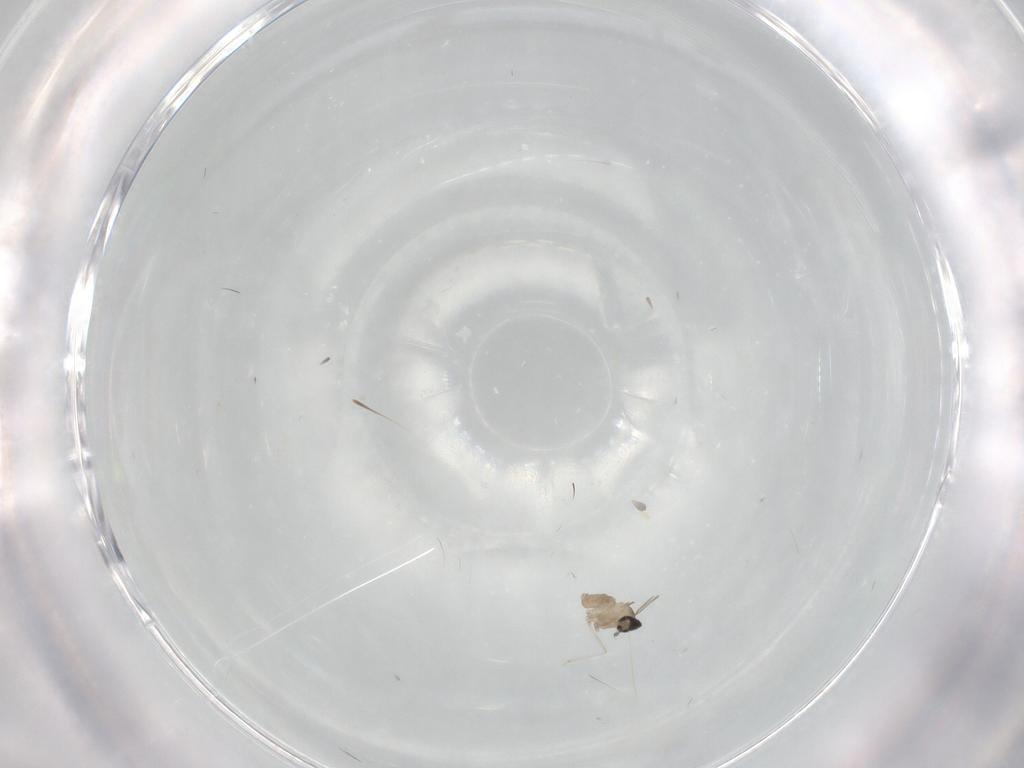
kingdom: Animalia
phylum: Arthropoda
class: Insecta
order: Diptera
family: Cecidomyiidae
